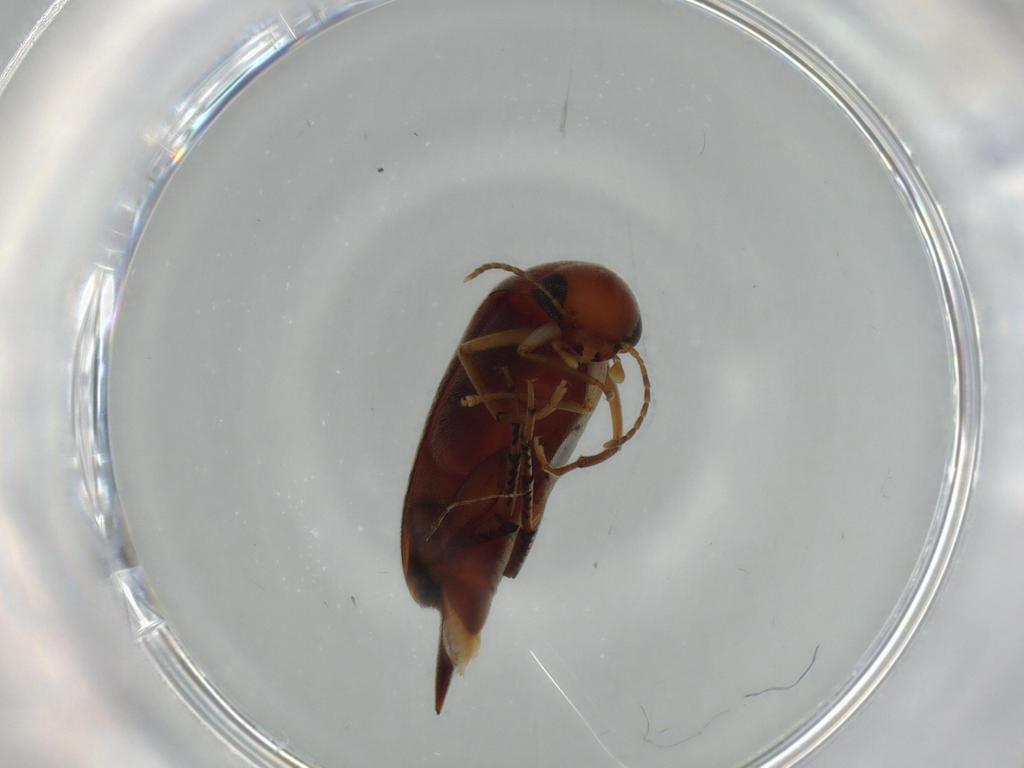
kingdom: Animalia
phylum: Arthropoda
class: Insecta
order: Coleoptera
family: Mordellidae
